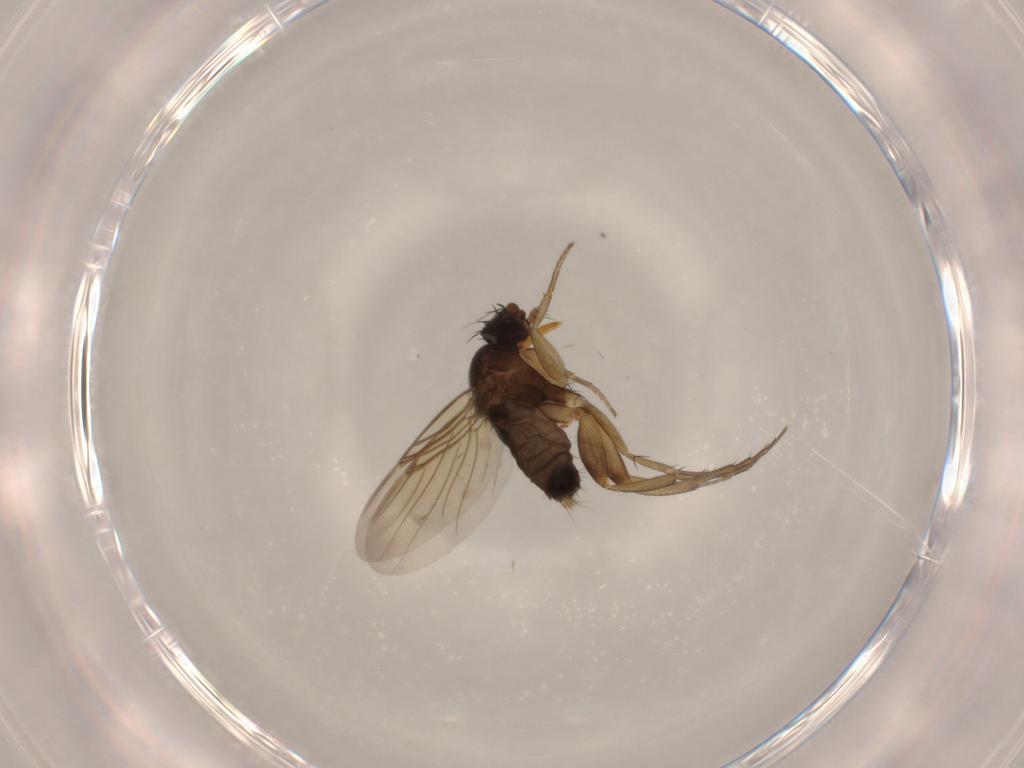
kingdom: Animalia
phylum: Arthropoda
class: Insecta
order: Diptera
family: Phoridae
